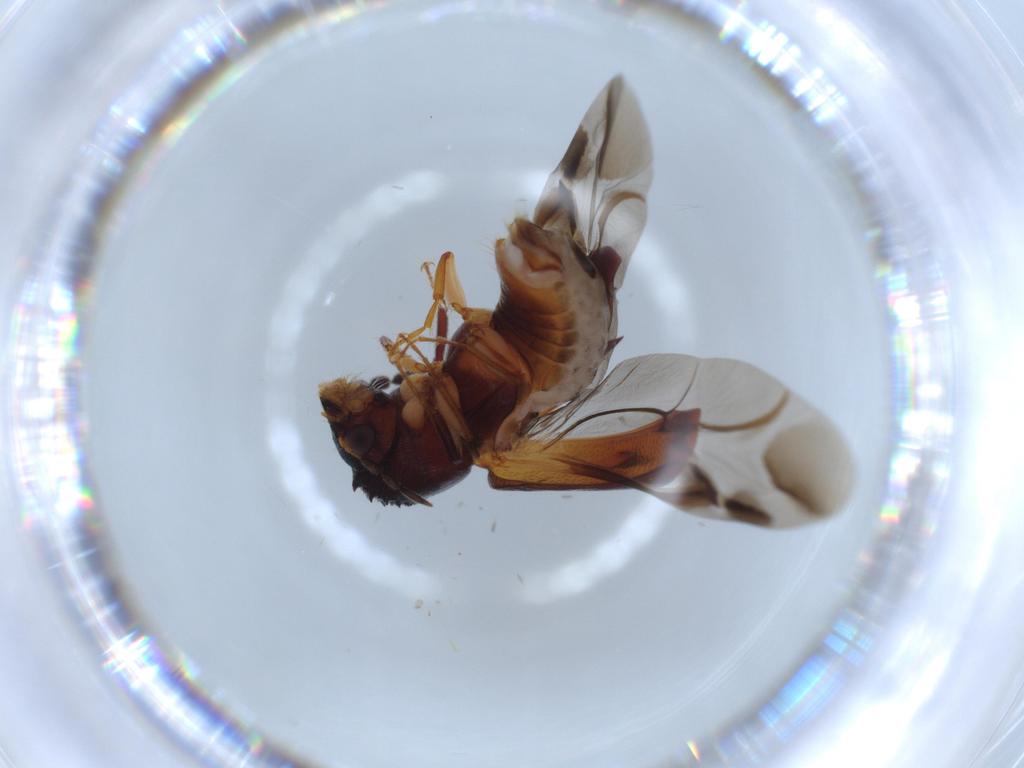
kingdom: Animalia
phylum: Arthropoda
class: Insecta
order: Coleoptera
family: Bostrichidae
